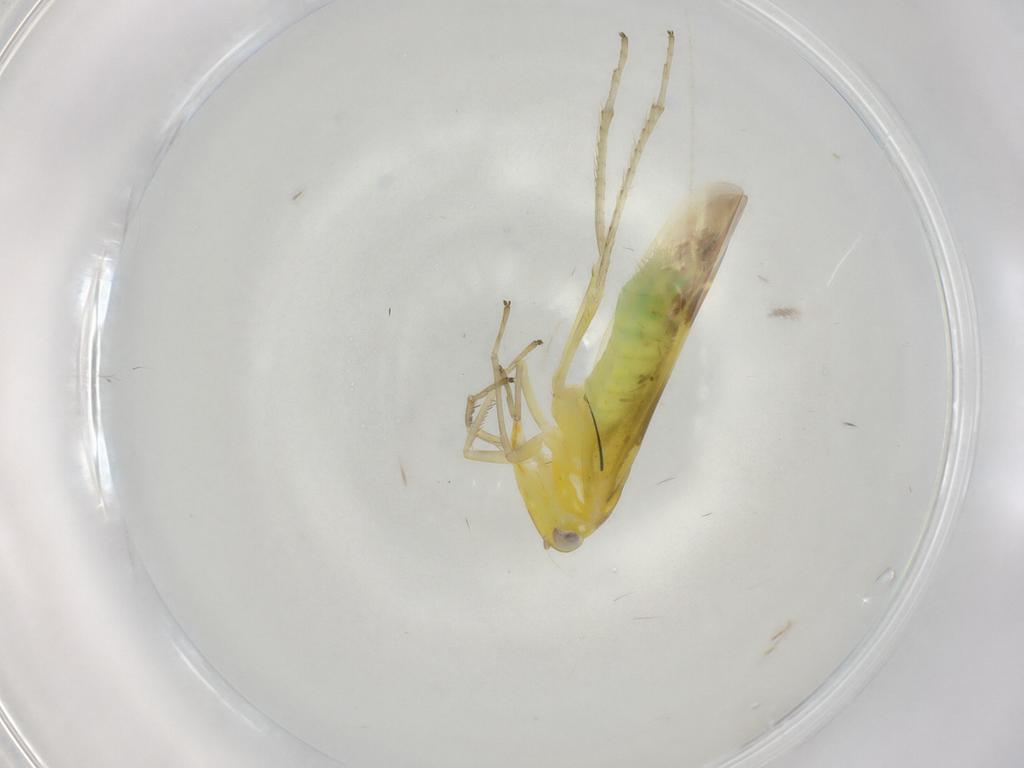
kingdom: Animalia
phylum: Arthropoda
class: Insecta
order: Hemiptera
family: Cicadellidae
